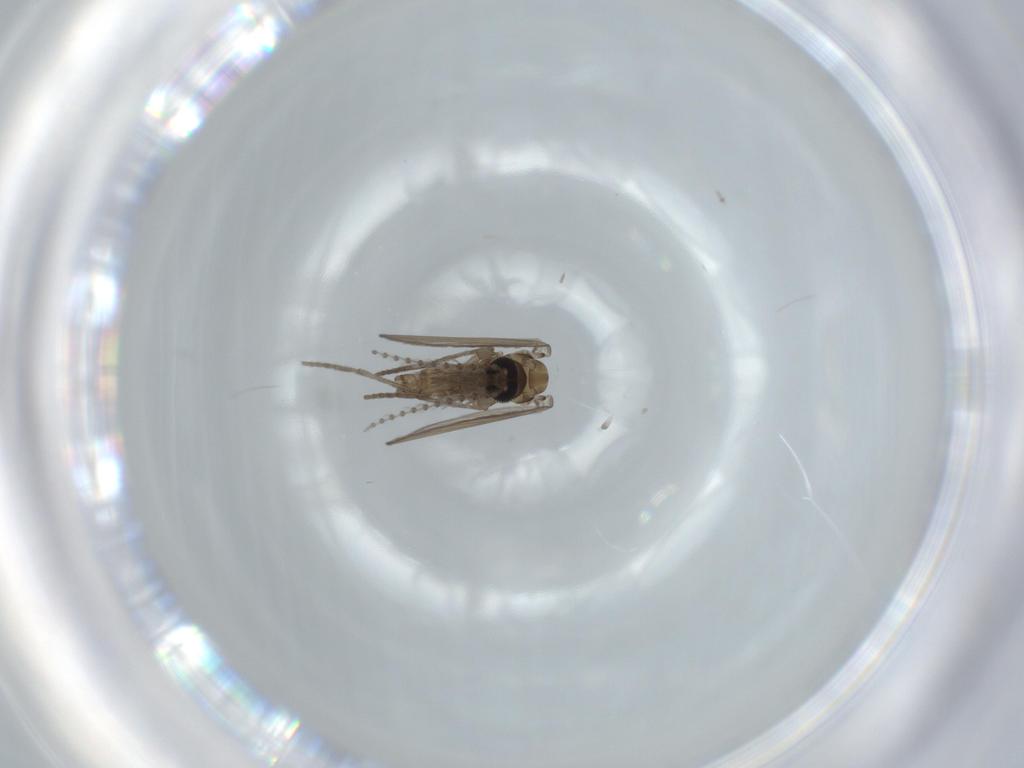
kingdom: Animalia
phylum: Arthropoda
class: Insecta
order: Diptera
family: Psychodidae
